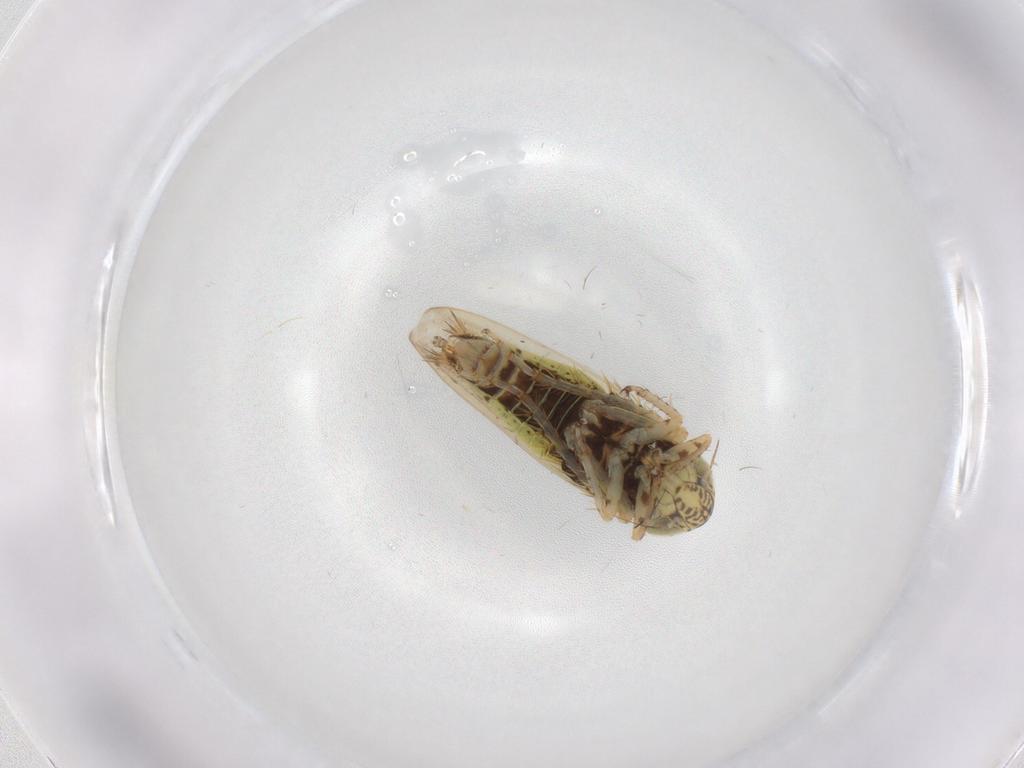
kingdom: Animalia
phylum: Arthropoda
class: Insecta
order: Hemiptera
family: Cicadellidae
